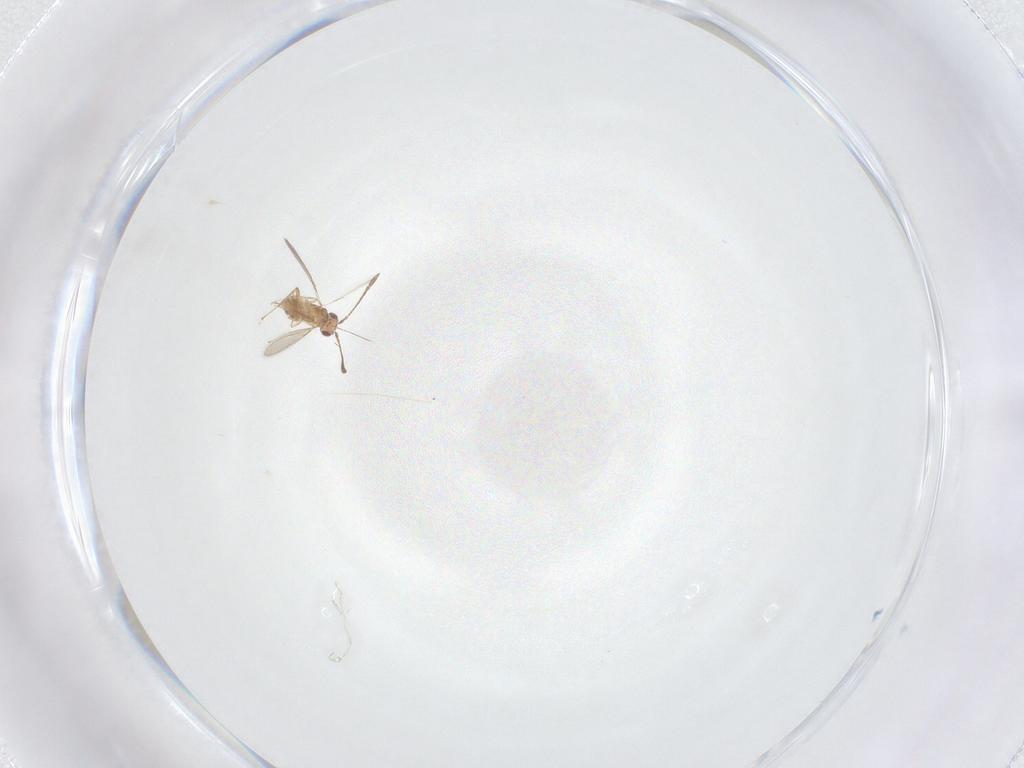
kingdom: Animalia
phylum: Arthropoda
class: Insecta
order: Hymenoptera
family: Mymaridae
